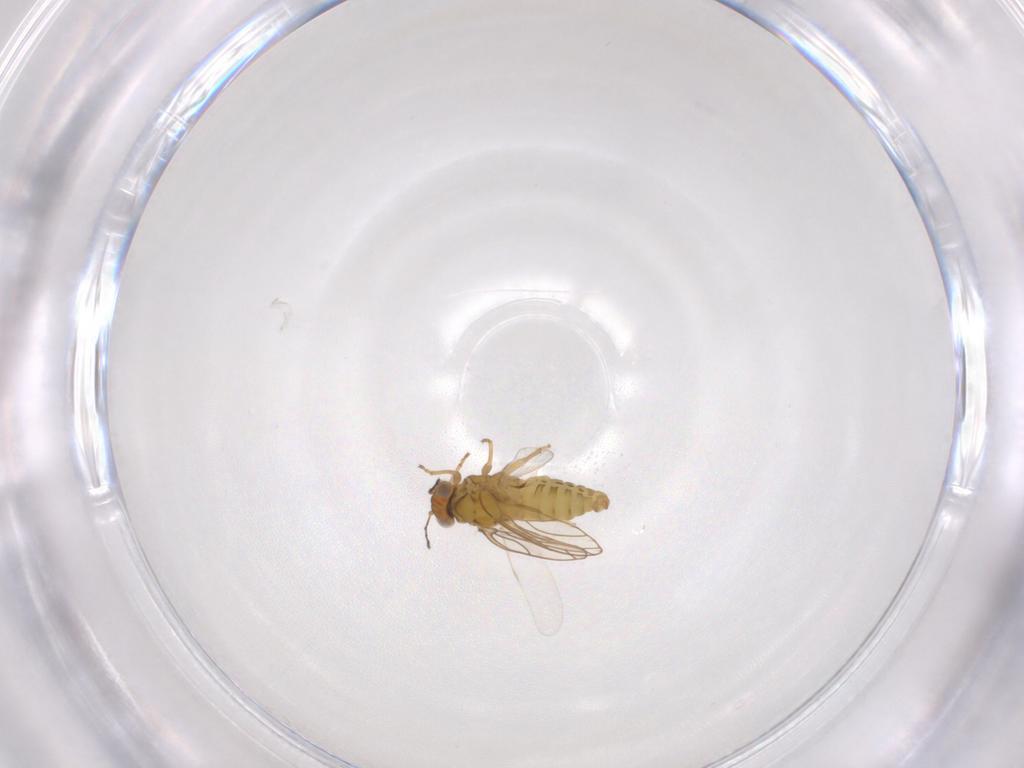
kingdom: Animalia
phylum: Arthropoda
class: Insecta
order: Hemiptera
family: Psylloidea_incertae_sedis
